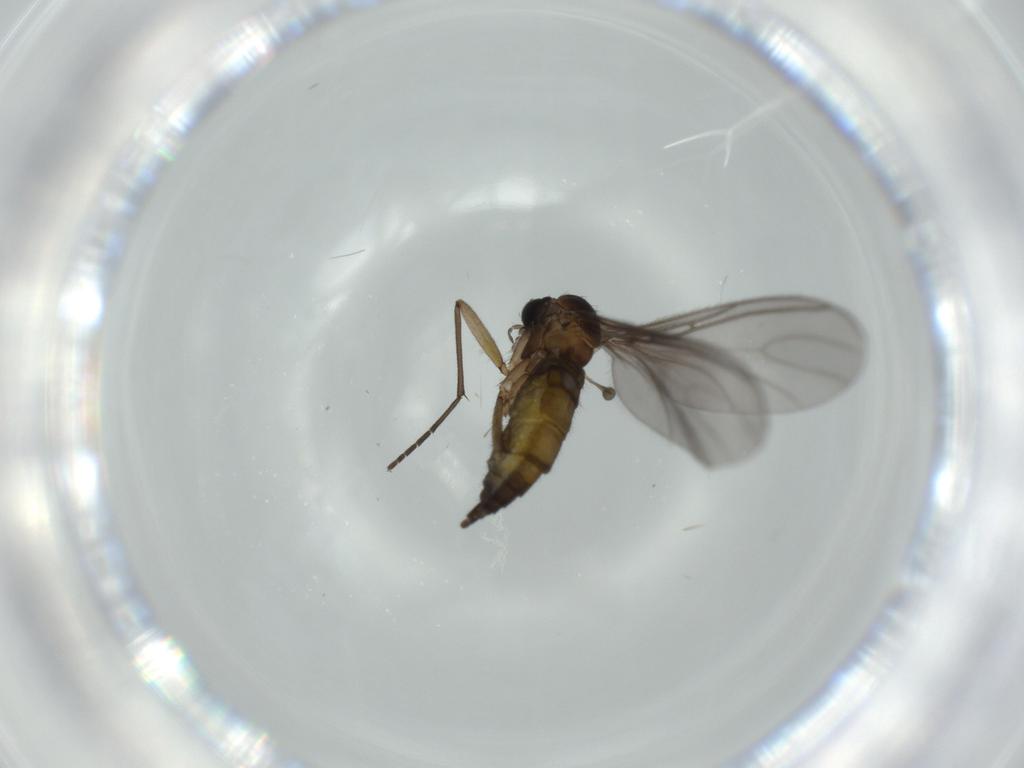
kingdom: Animalia
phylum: Arthropoda
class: Insecta
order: Diptera
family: Sciaridae
